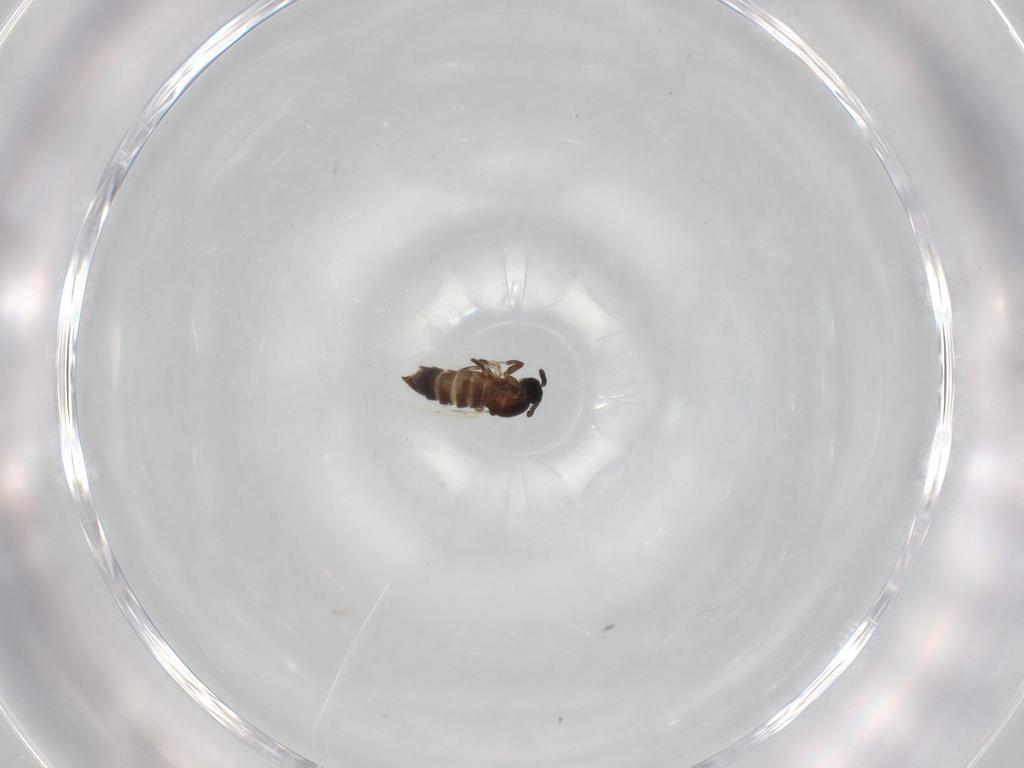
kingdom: Animalia
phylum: Arthropoda
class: Insecta
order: Diptera
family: Scatopsidae
